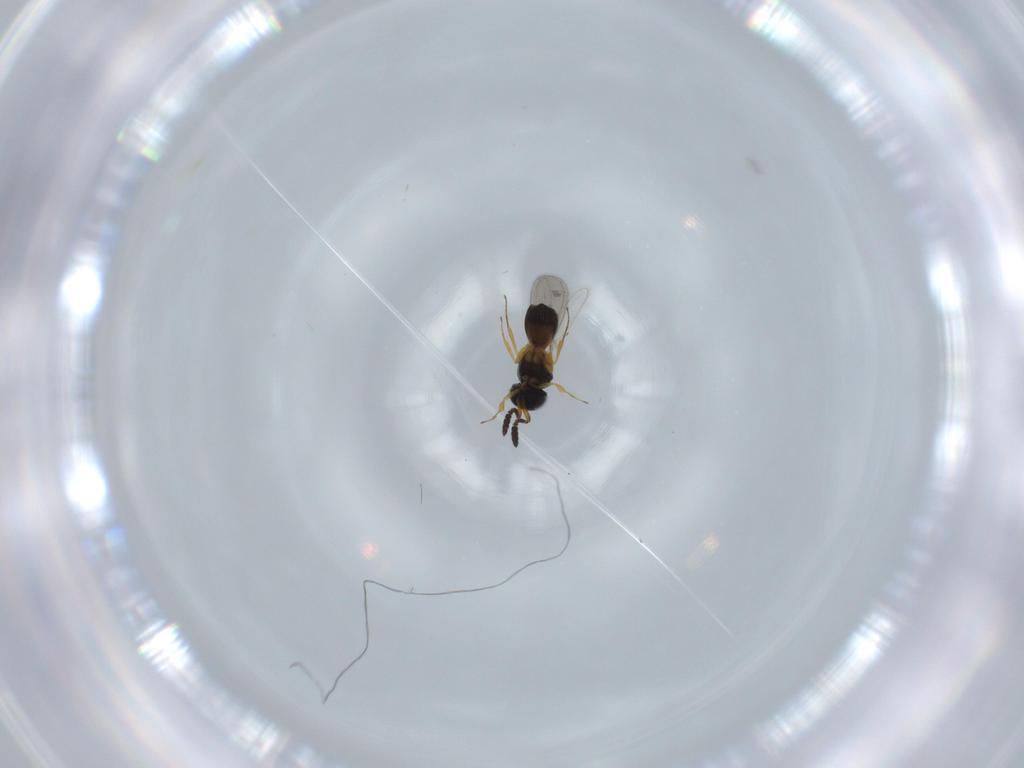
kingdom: Animalia
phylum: Arthropoda
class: Insecta
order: Hymenoptera
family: Scelionidae
